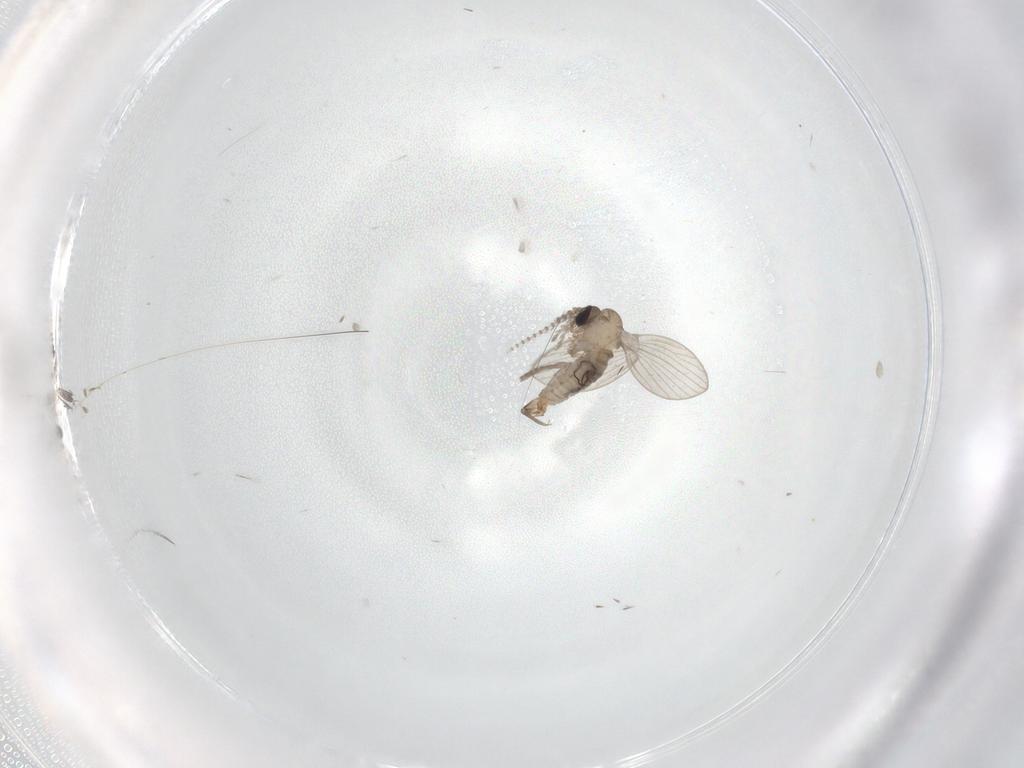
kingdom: Animalia
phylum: Arthropoda
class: Insecta
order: Diptera
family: Psychodidae
